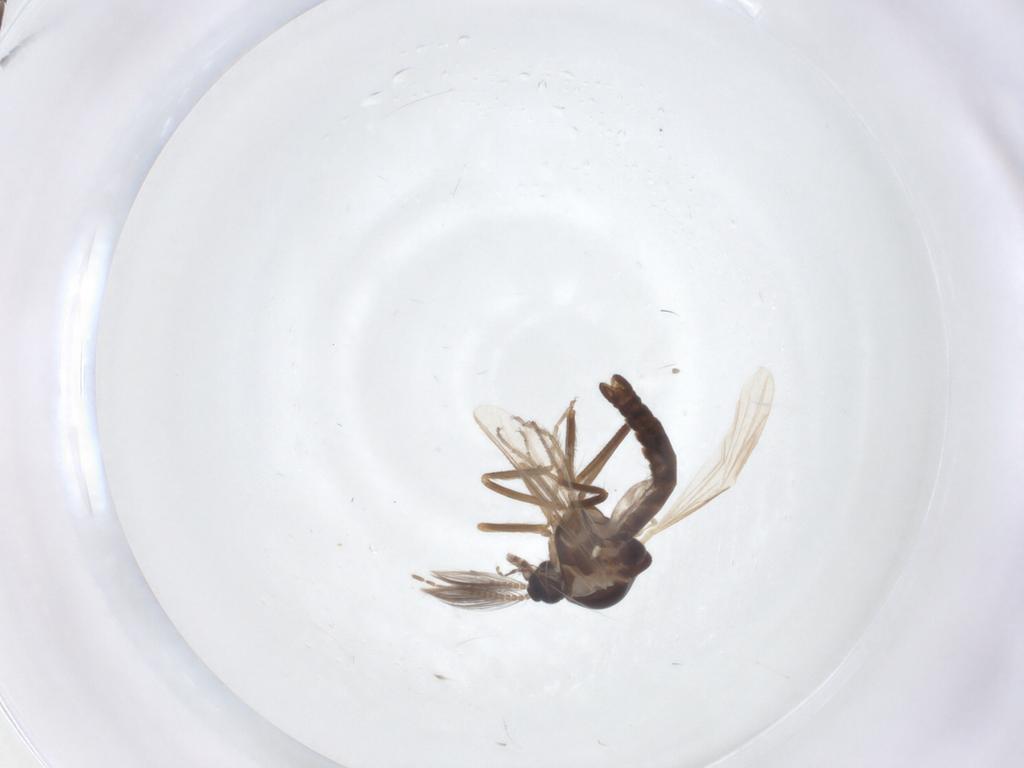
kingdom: Animalia
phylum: Arthropoda
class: Insecta
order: Diptera
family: Ceratopogonidae
